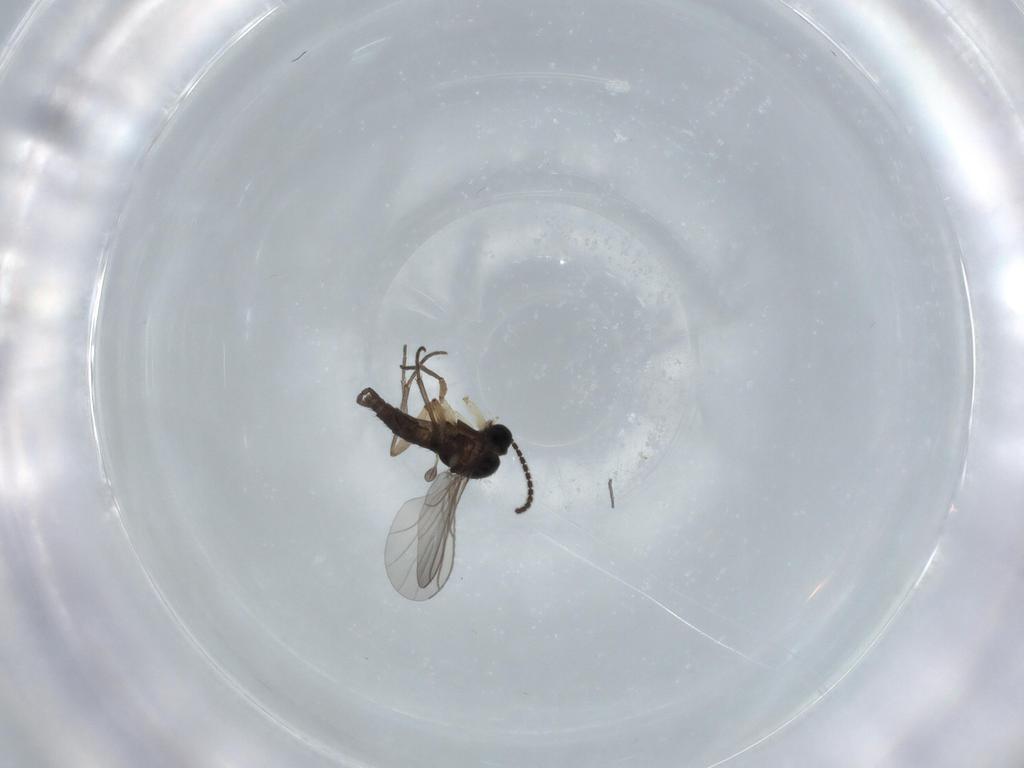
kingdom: Animalia
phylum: Arthropoda
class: Insecta
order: Diptera
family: Sciaridae
